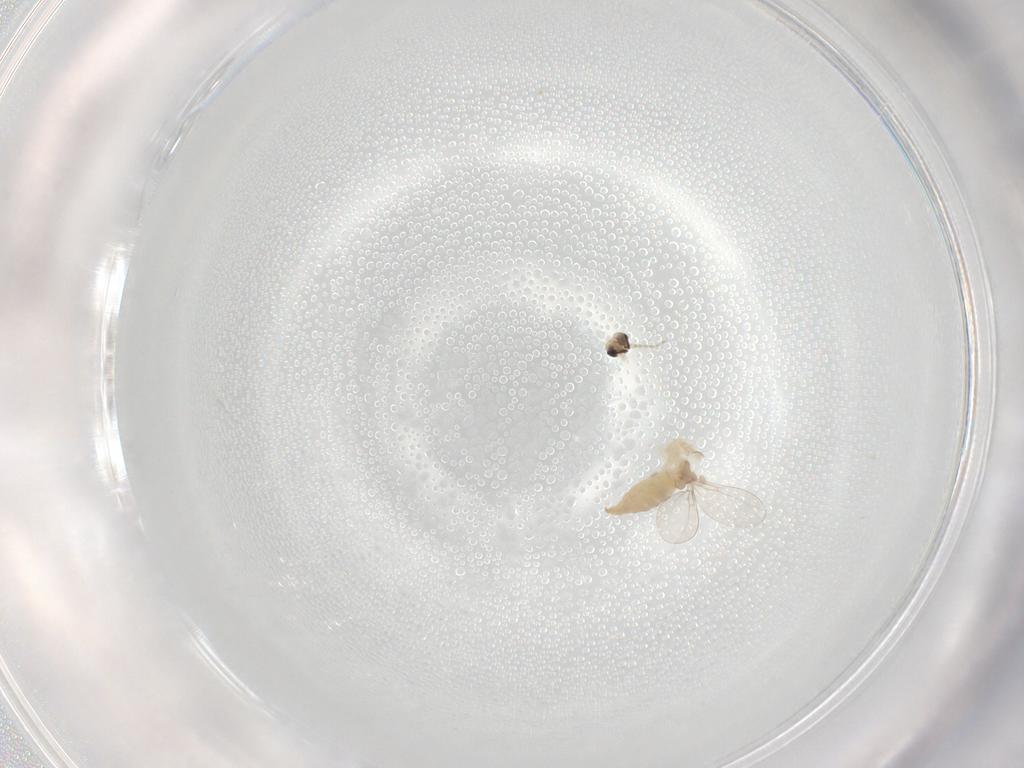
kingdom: Animalia
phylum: Arthropoda
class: Insecta
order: Diptera
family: Cecidomyiidae
